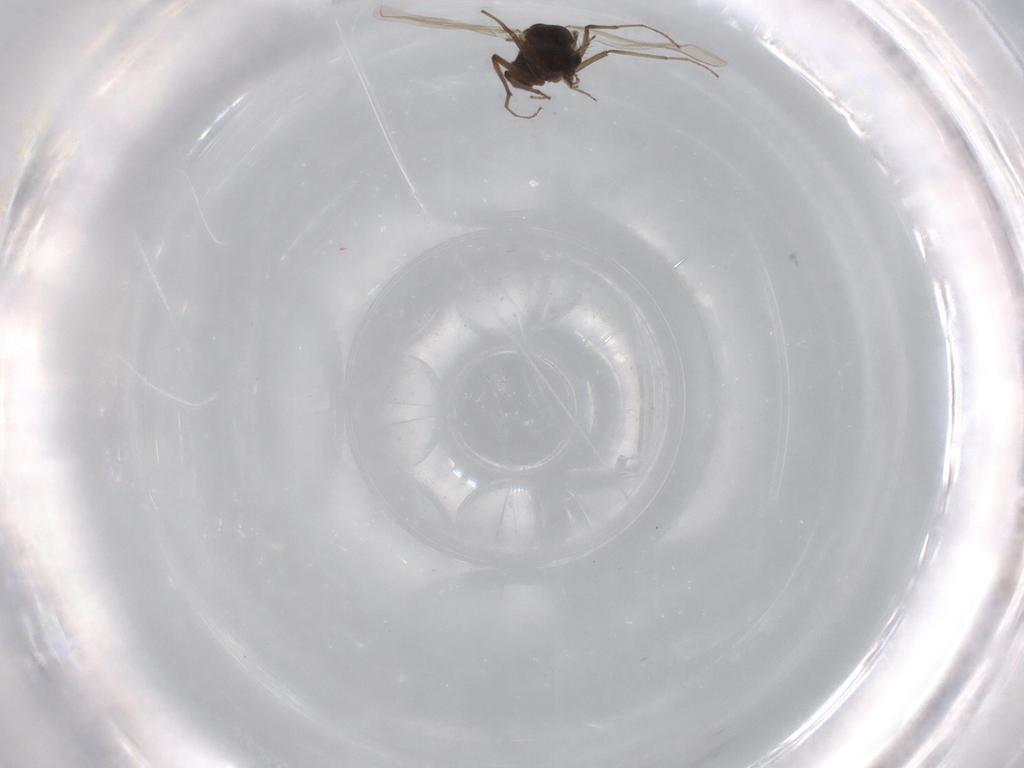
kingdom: Animalia
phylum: Arthropoda
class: Insecta
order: Diptera
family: Chironomidae
